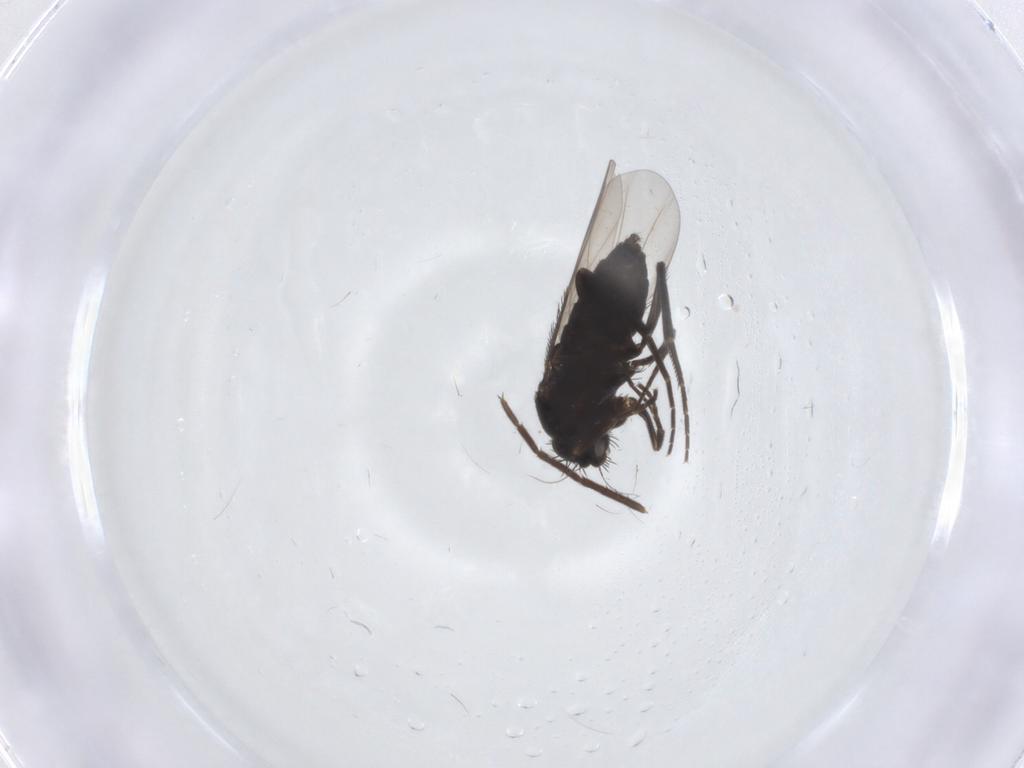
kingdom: Animalia
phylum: Arthropoda
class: Insecta
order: Diptera
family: Phoridae
